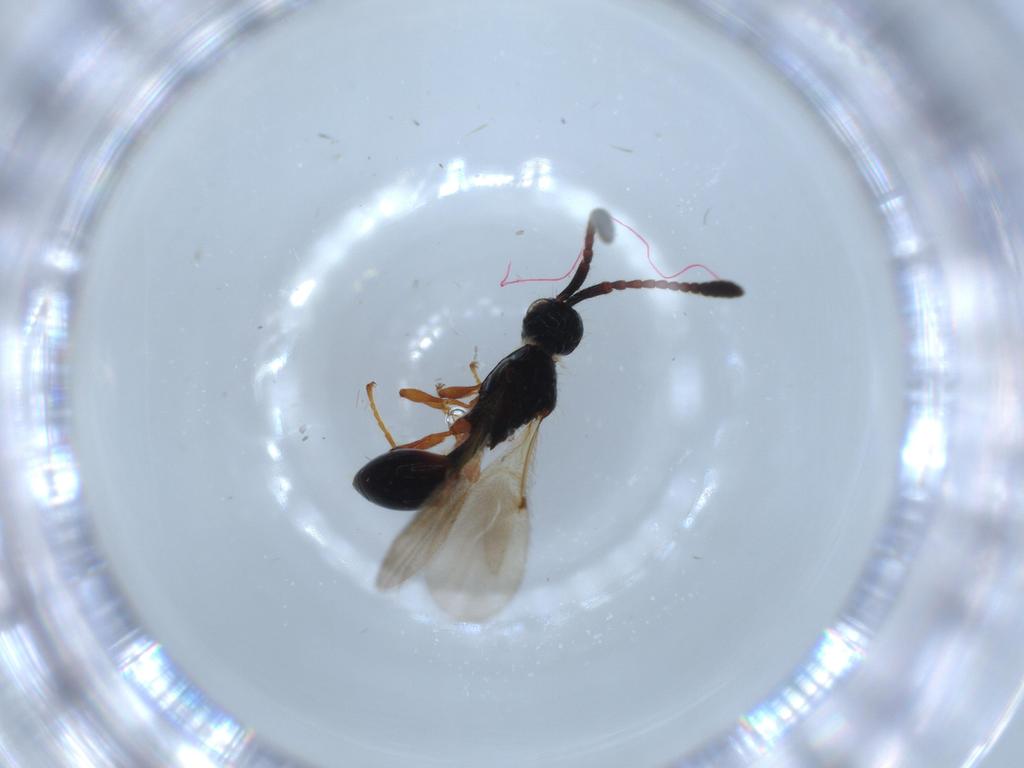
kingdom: Animalia
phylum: Arthropoda
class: Insecta
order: Hymenoptera
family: Diapriidae
